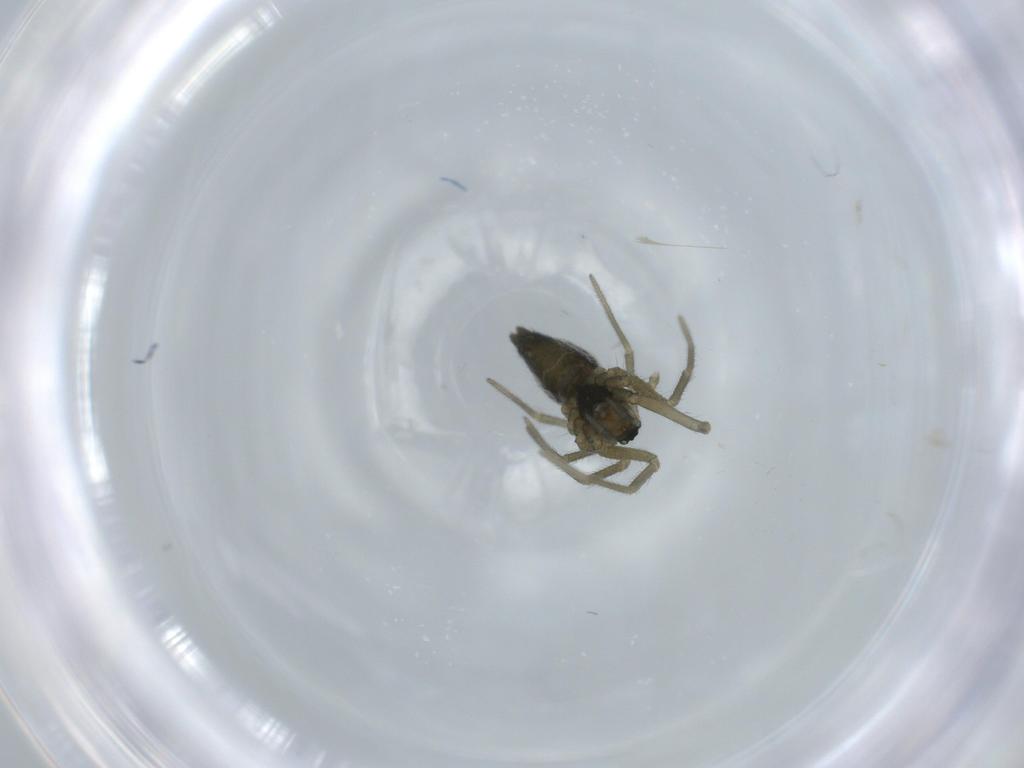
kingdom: Animalia
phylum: Arthropoda
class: Arachnida
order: Araneae
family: Linyphiidae
